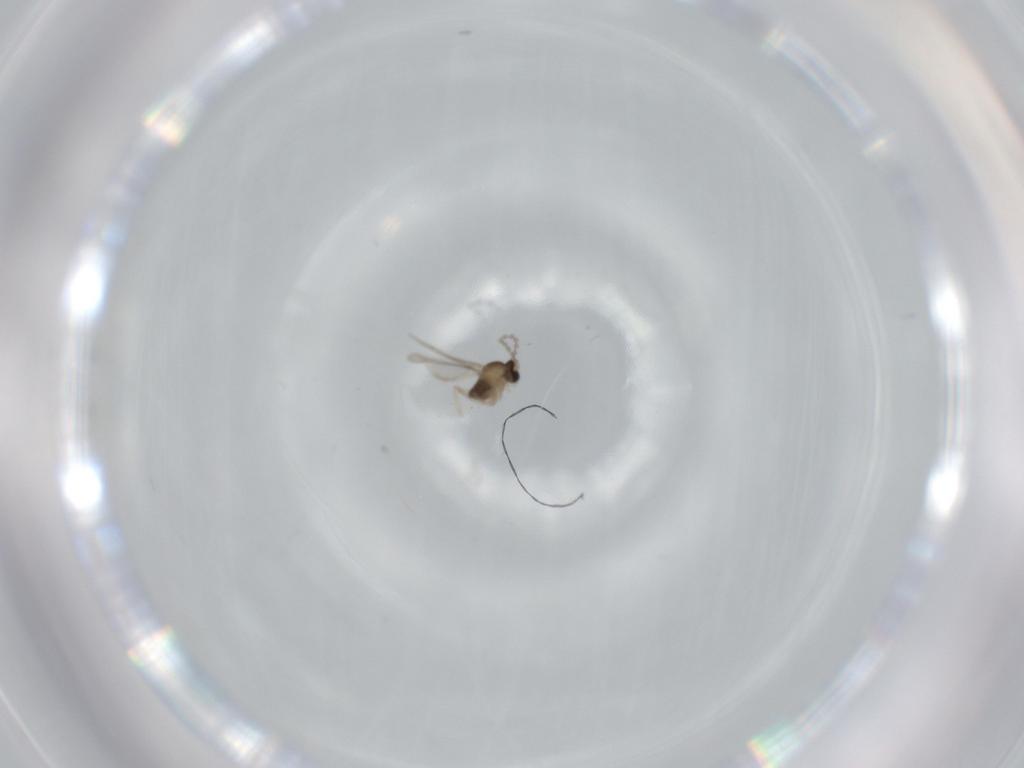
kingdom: Animalia
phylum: Arthropoda
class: Insecta
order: Diptera
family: Cecidomyiidae
